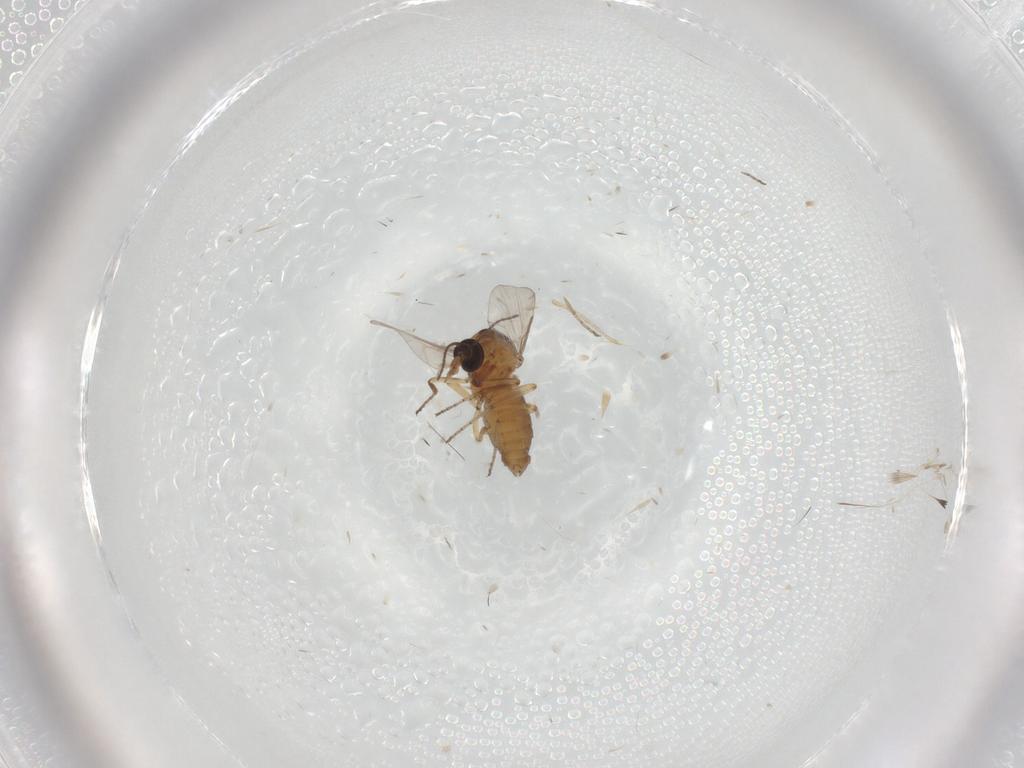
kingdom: Animalia
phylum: Arthropoda
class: Insecta
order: Diptera
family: Ceratopogonidae
